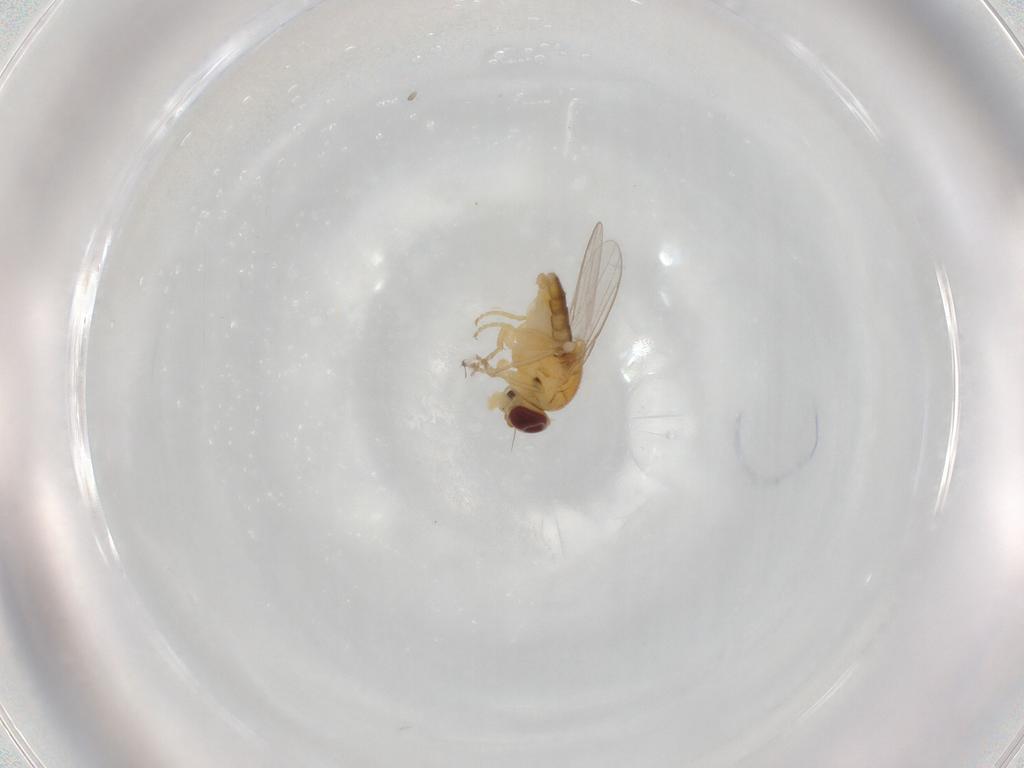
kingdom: Animalia
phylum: Arthropoda
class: Insecta
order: Diptera
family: Chloropidae
